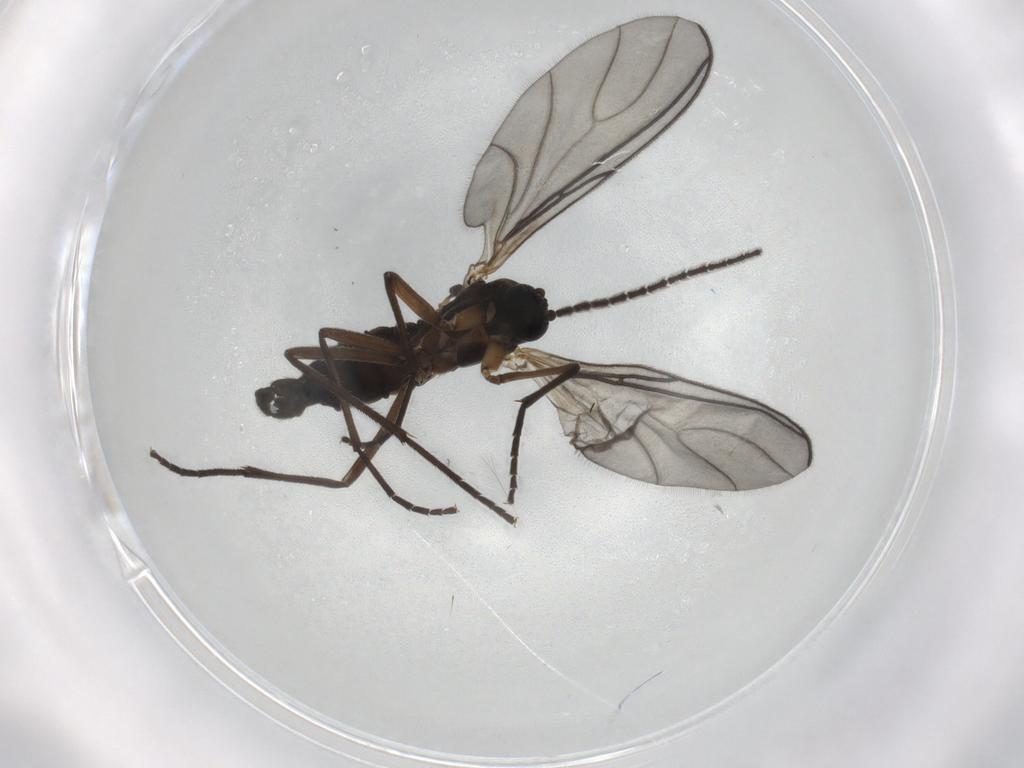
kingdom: Animalia
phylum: Arthropoda
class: Insecta
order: Diptera
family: Sciaridae
